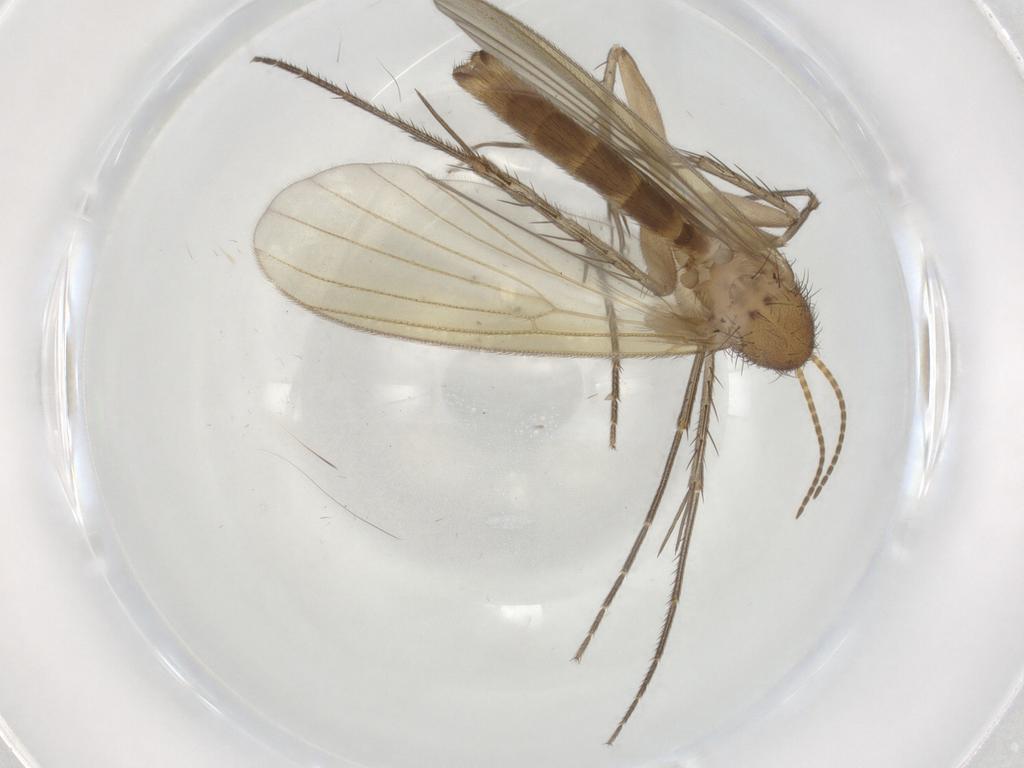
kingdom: Animalia
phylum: Arthropoda
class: Insecta
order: Diptera
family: Mycetophilidae
